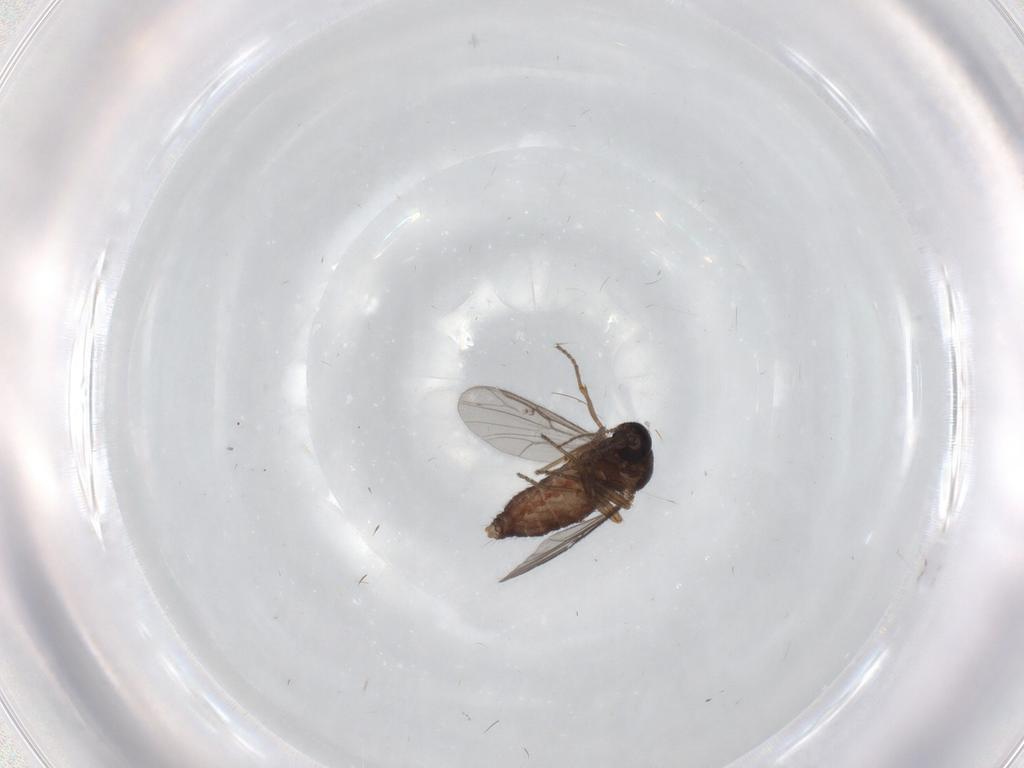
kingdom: Animalia
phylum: Arthropoda
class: Insecta
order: Diptera
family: Ceratopogonidae
